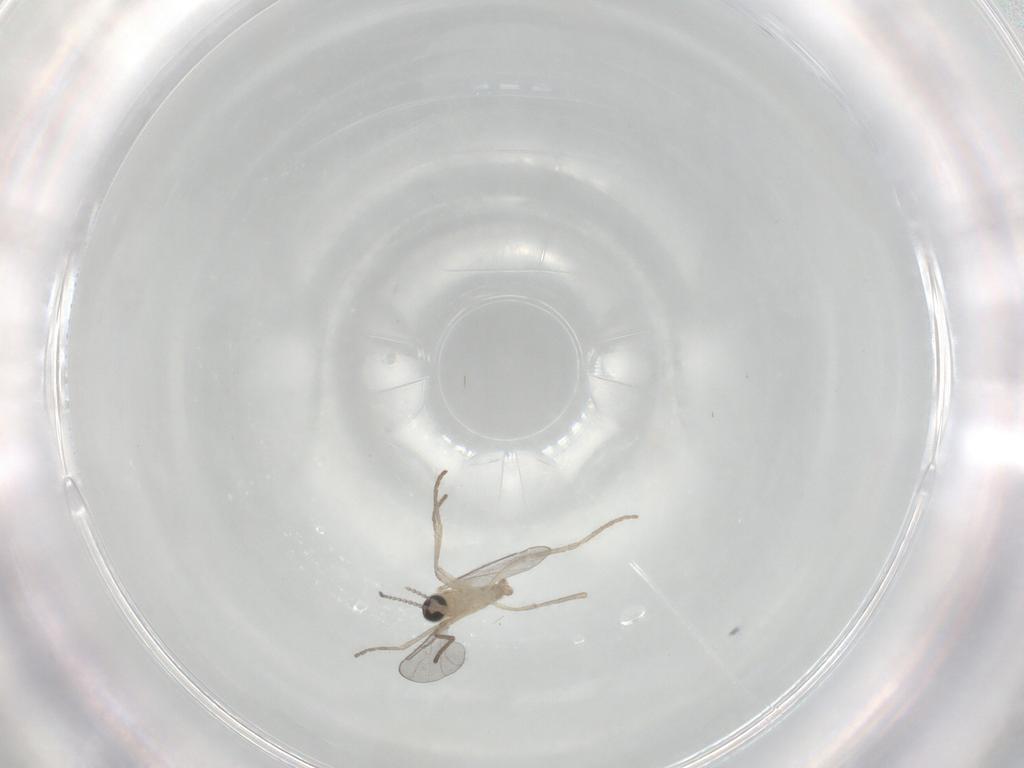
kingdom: Animalia
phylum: Arthropoda
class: Insecta
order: Diptera
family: Cecidomyiidae
